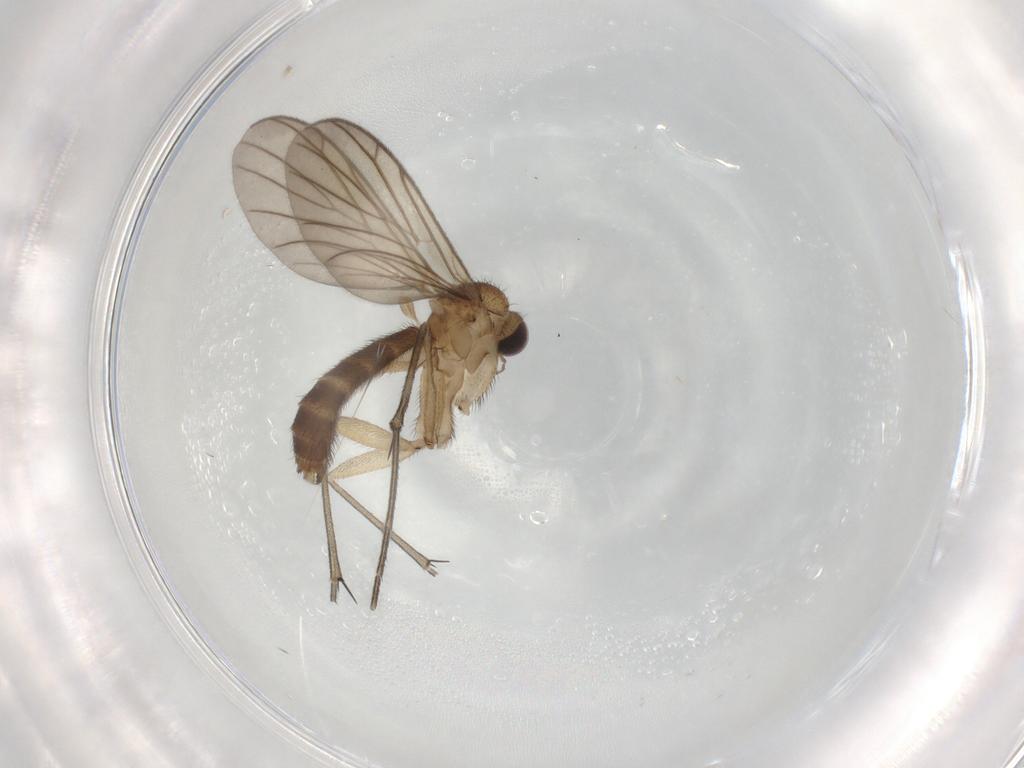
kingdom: Animalia
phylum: Arthropoda
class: Insecta
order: Diptera
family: Keroplatidae
